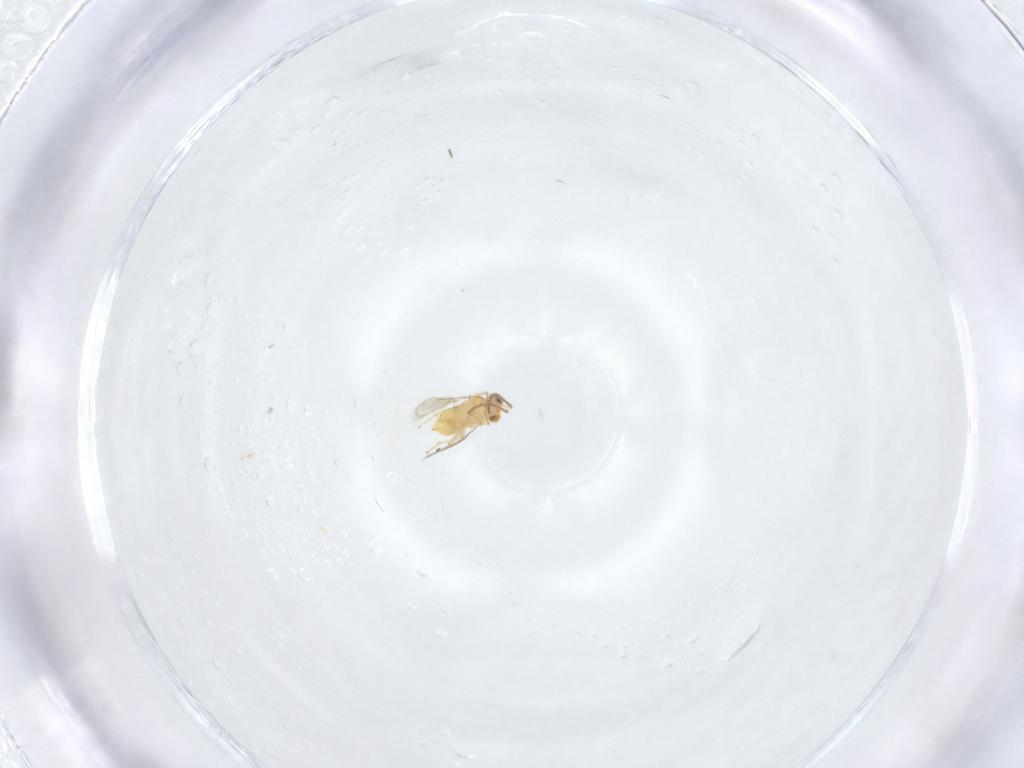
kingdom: Animalia
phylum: Arthropoda
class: Insecta
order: Hymenoptera
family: Aphelinidae
